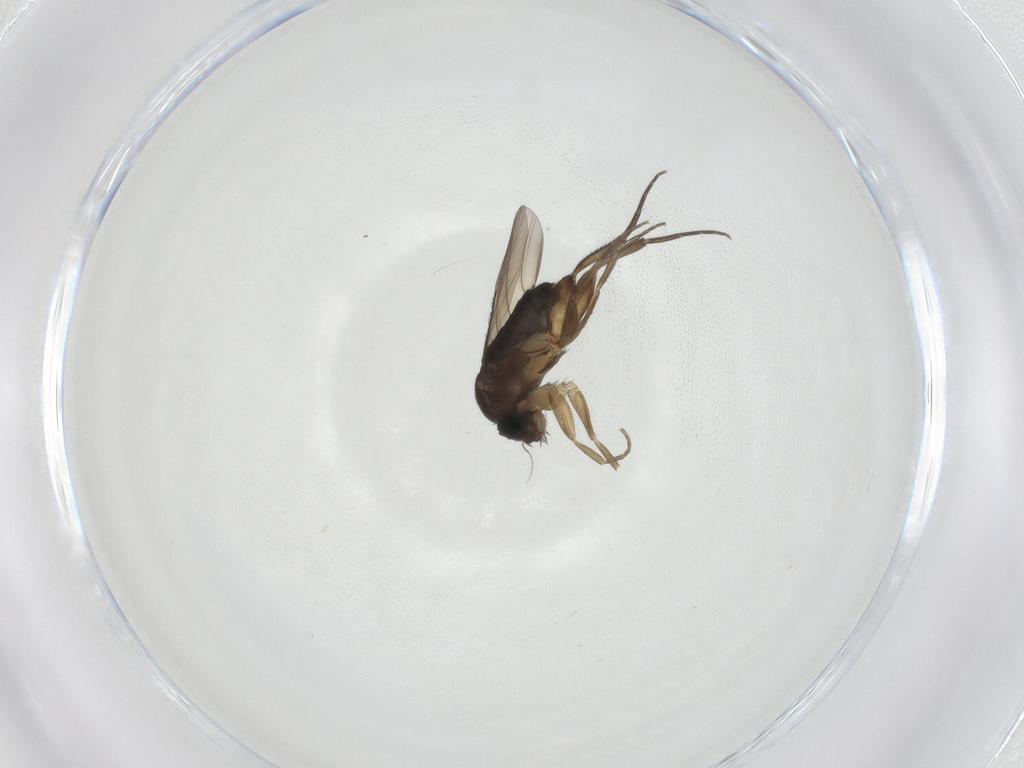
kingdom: Animalia
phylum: Arthropoda
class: Insecta
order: Diptera
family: Phoridae
